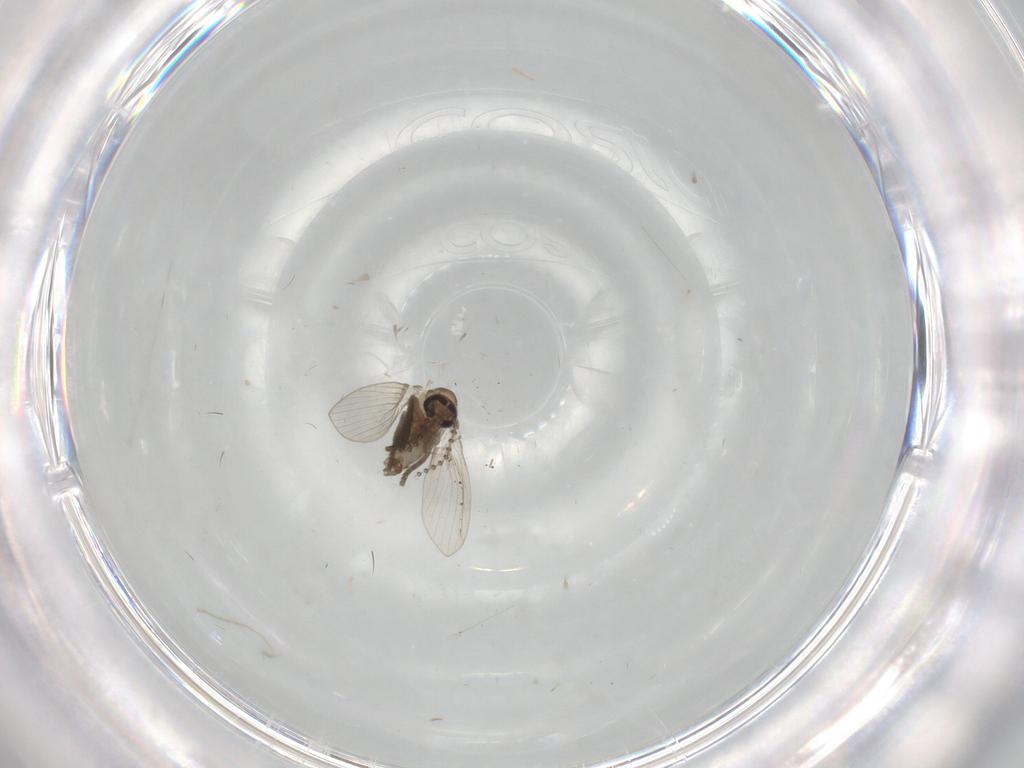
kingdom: Animalia
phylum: Arthropoda
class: Insecta
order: Diptera
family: Psychodidae
